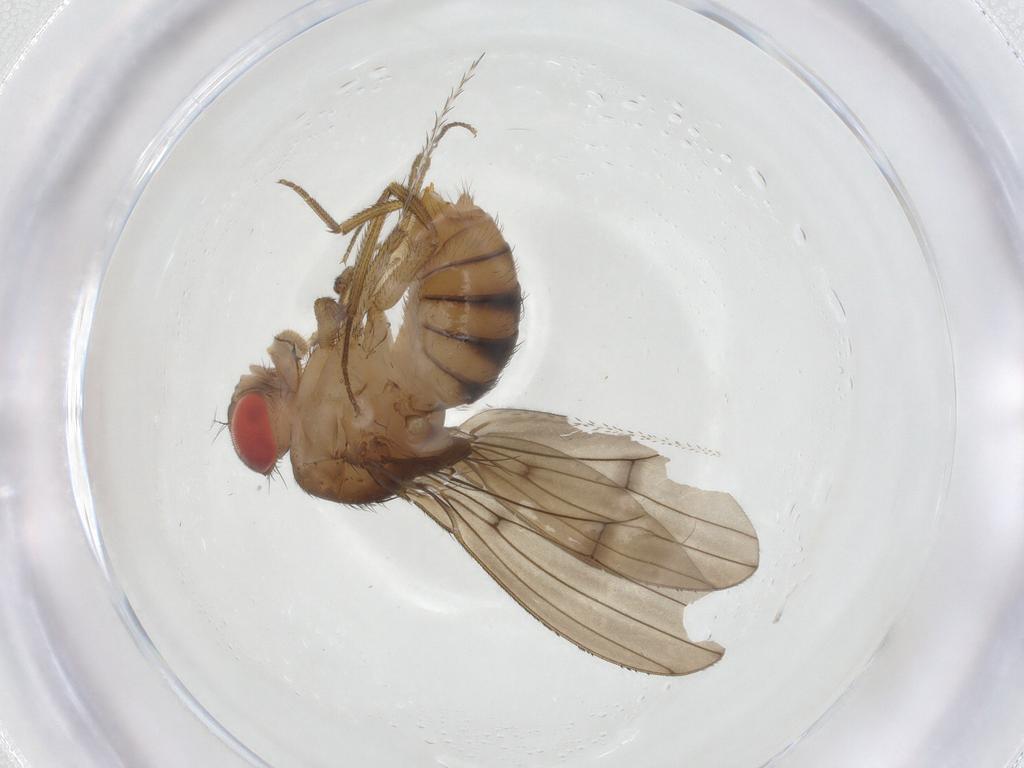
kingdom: Animalia
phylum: Arthropoda
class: Insecta
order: Diptera
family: Drosophilidae
